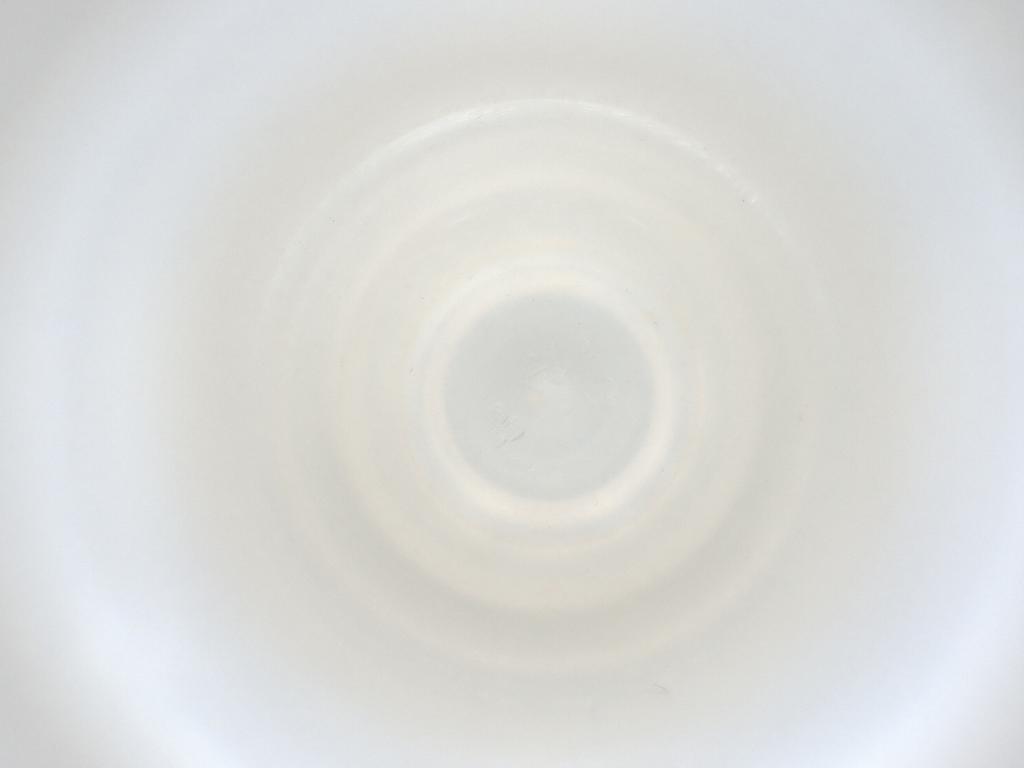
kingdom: Animalia
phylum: Arthropoda
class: Insecta
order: Diptera
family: Cecidomyiidae
